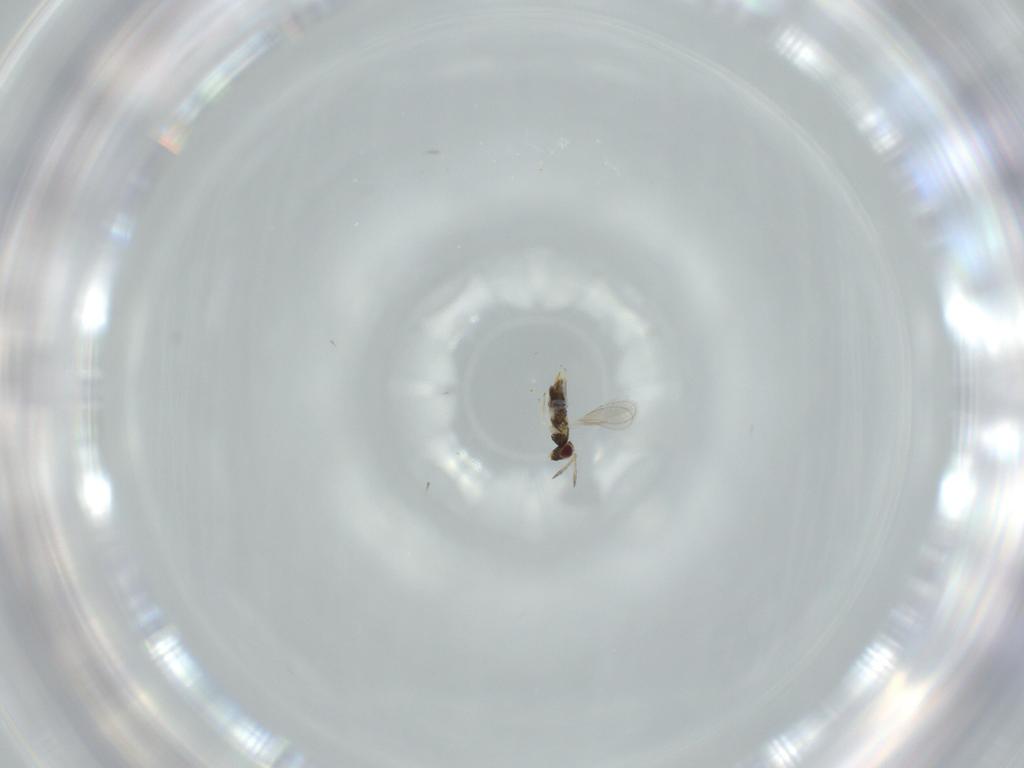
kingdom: Animalia
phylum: Arthropoda
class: Insecta
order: Hymenoptera
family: Aphelinidae
